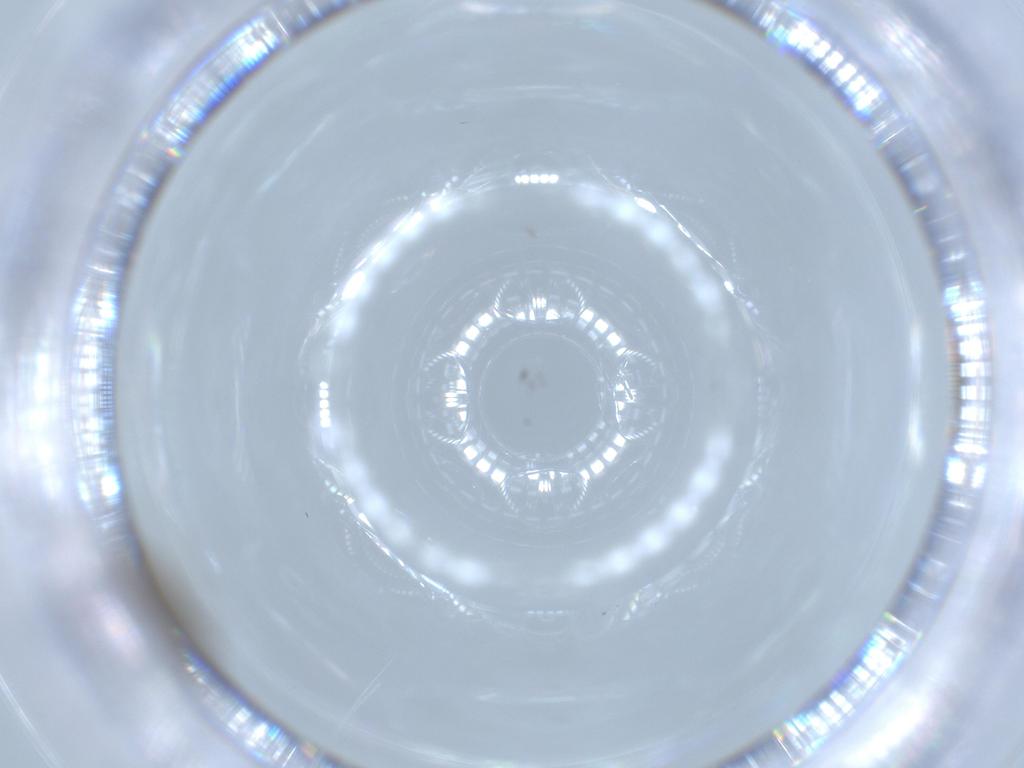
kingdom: Animalia
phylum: Arthropoda
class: Insecta
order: Diptera
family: Cecidomyiidae
